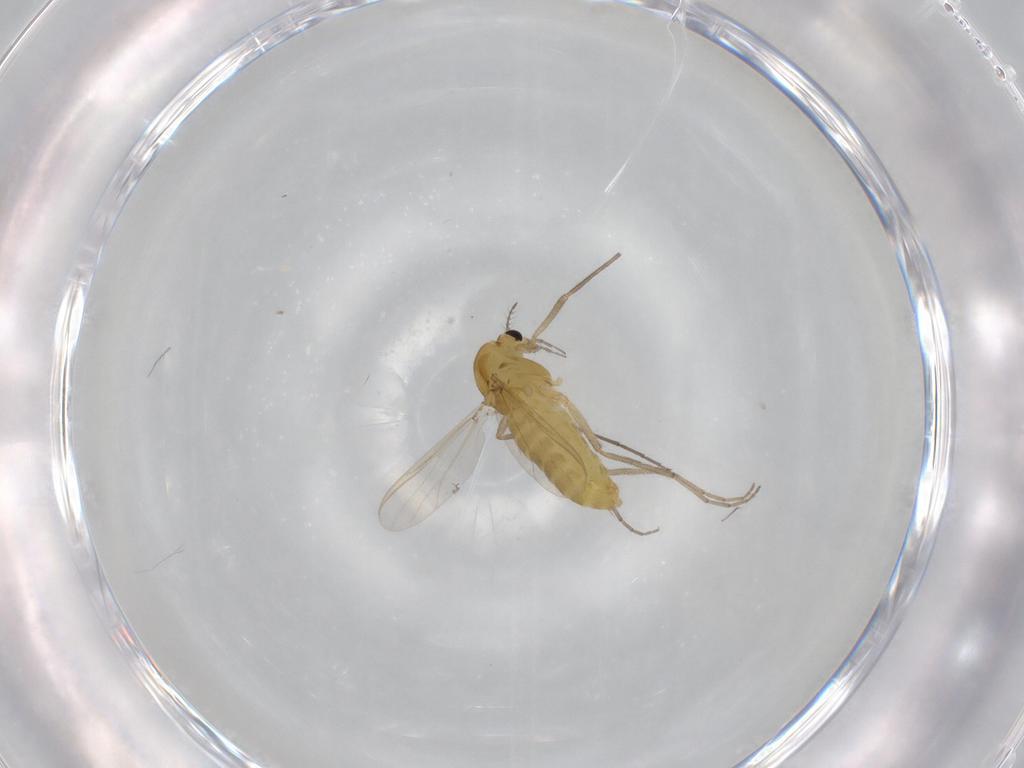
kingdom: Animalia
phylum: Arthropoda
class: Insecta
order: Diptera
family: Chironomidae
